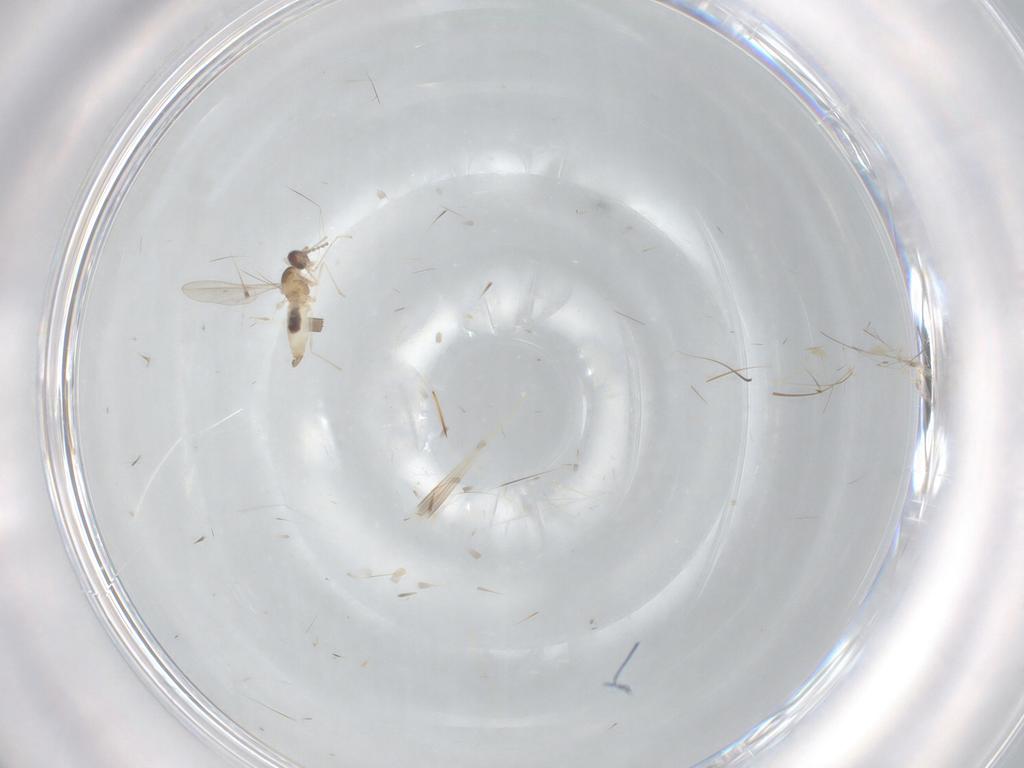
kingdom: Animalia
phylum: Arthropoda
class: Insecta
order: Diptera
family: Cecidomyiidae
